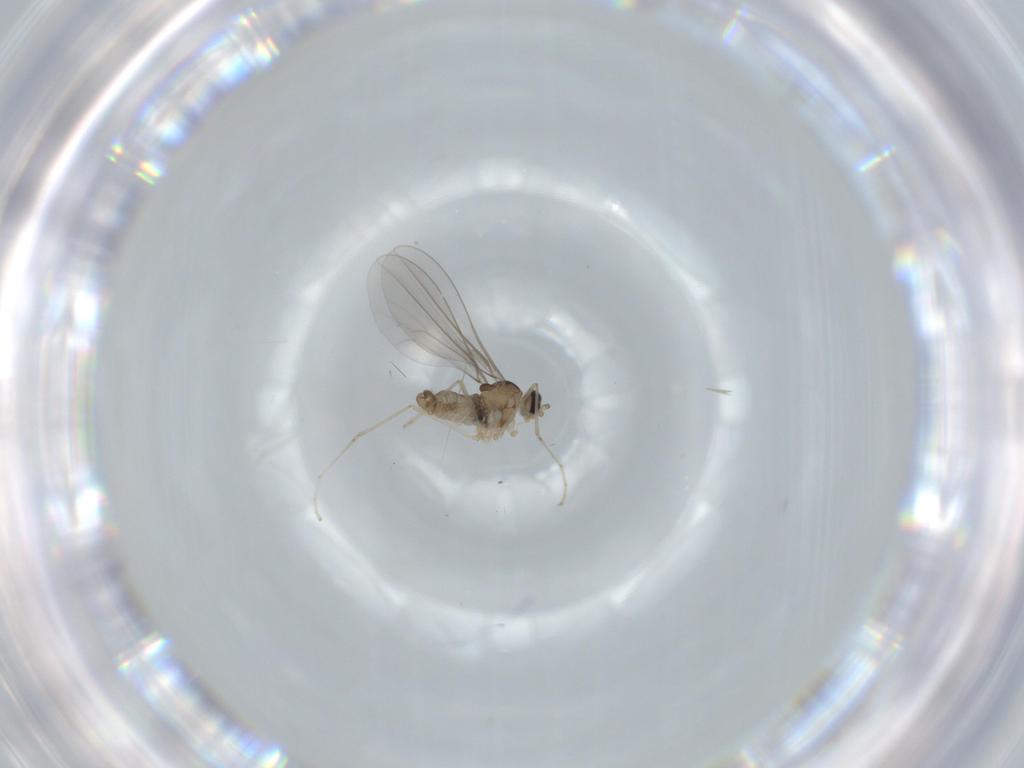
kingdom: Animalia
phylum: Arthropoda
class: Insecta
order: Diptera
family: Cecidomyiidae
